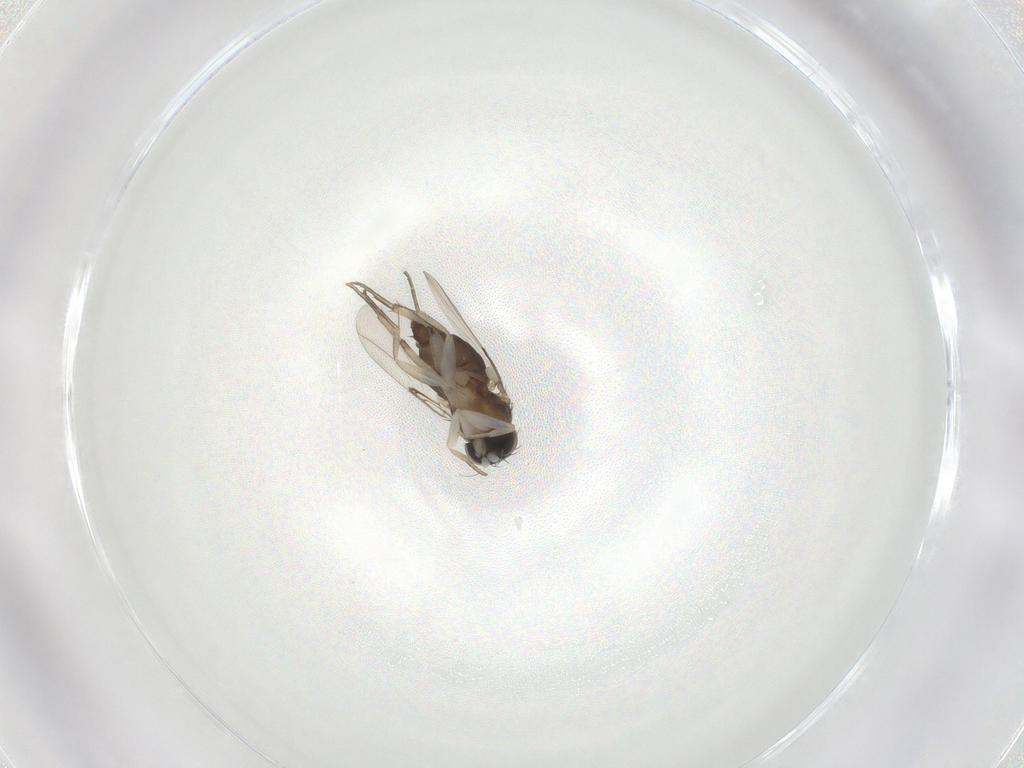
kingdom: Animalia
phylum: Arthropoda
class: Insecta
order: Diptera
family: Phoridae
